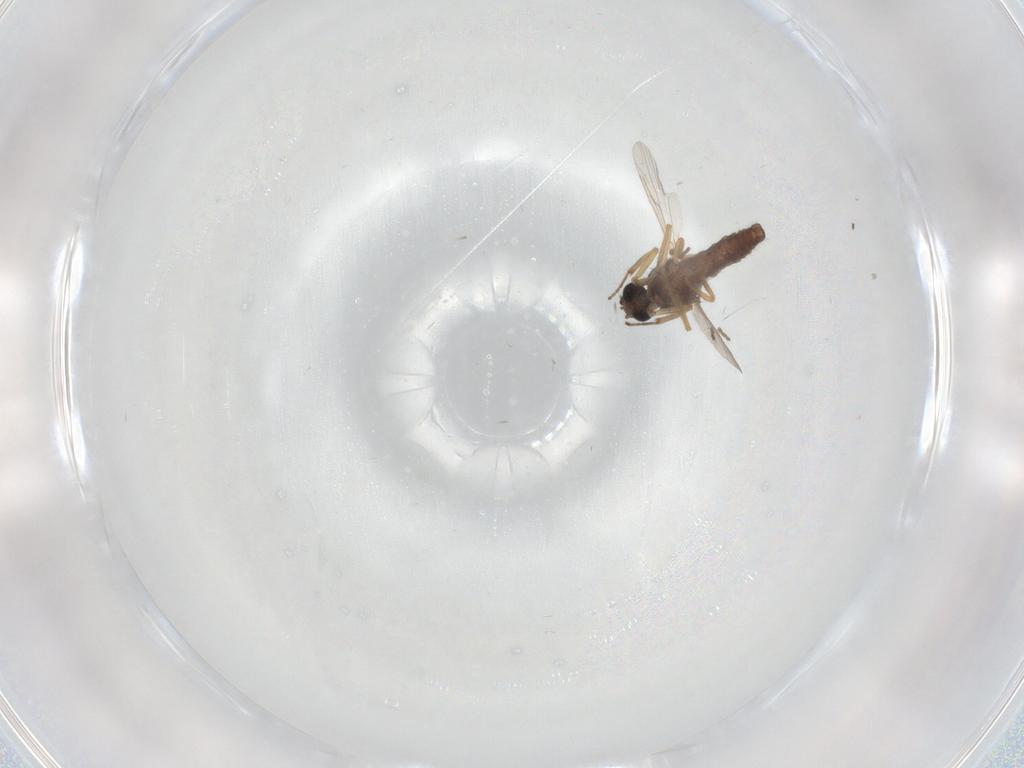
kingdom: Animalia
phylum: Arthropoda
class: Insecta
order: Diptera
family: Ceratopogonidae
